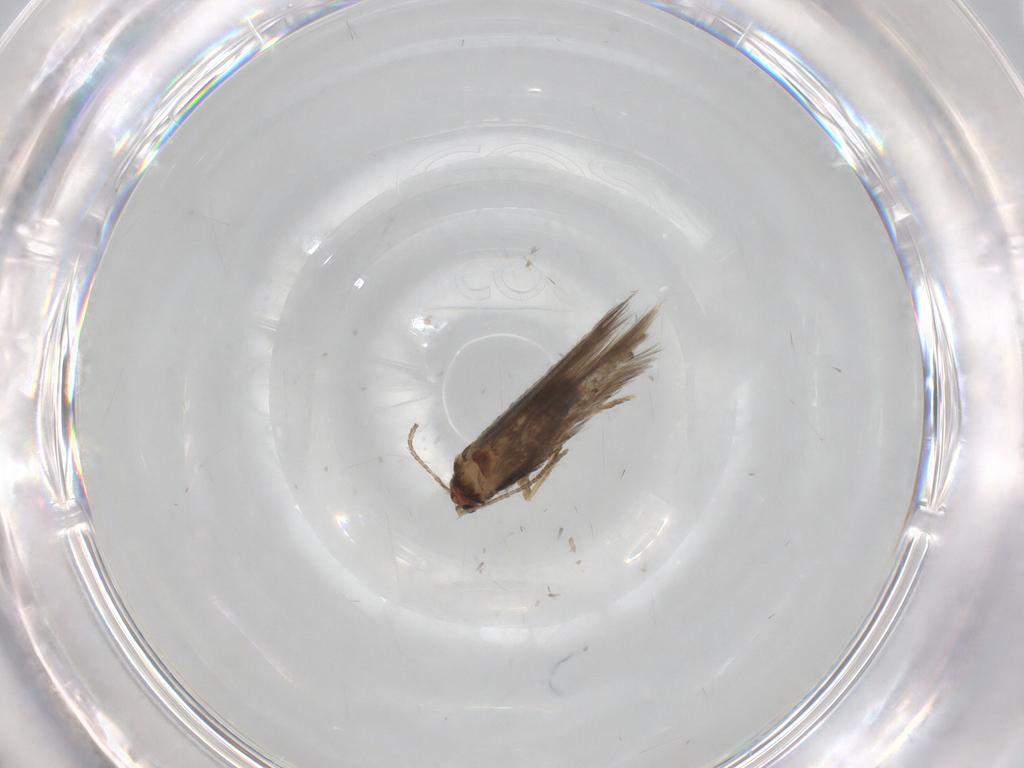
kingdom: Animalia
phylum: Arthropoda
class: Insecta
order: Lepidoptera
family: Nepticulidae
